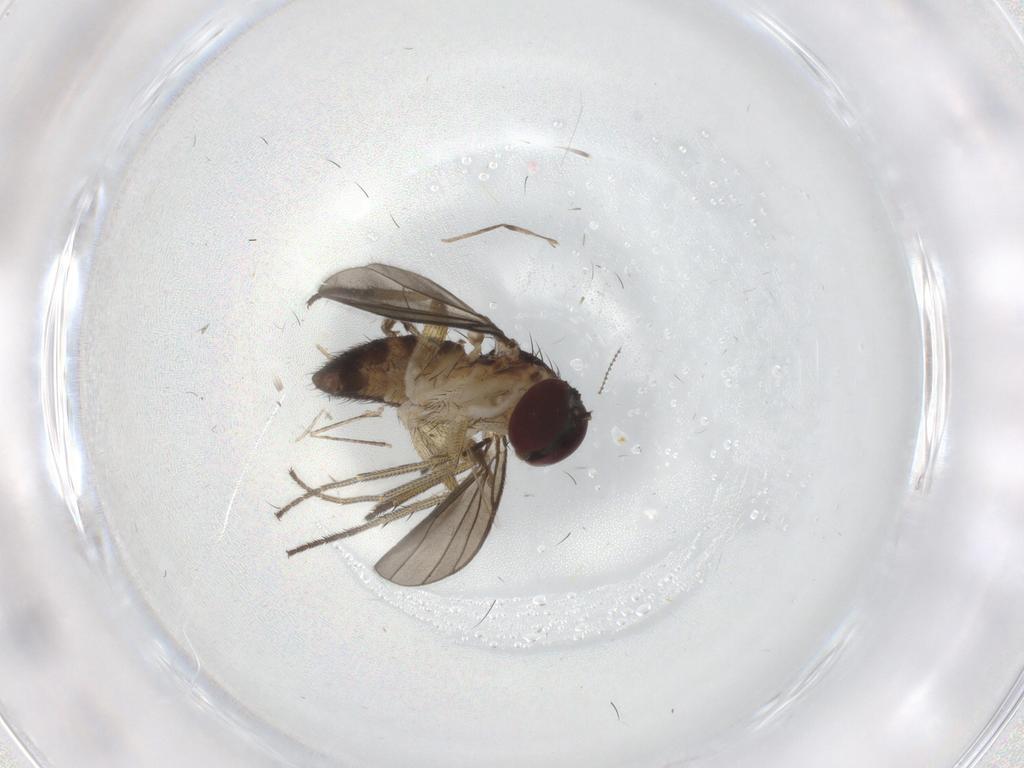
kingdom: Animalia
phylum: Arthropoda
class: Insecta
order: Diptera
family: Dolichopodidae
